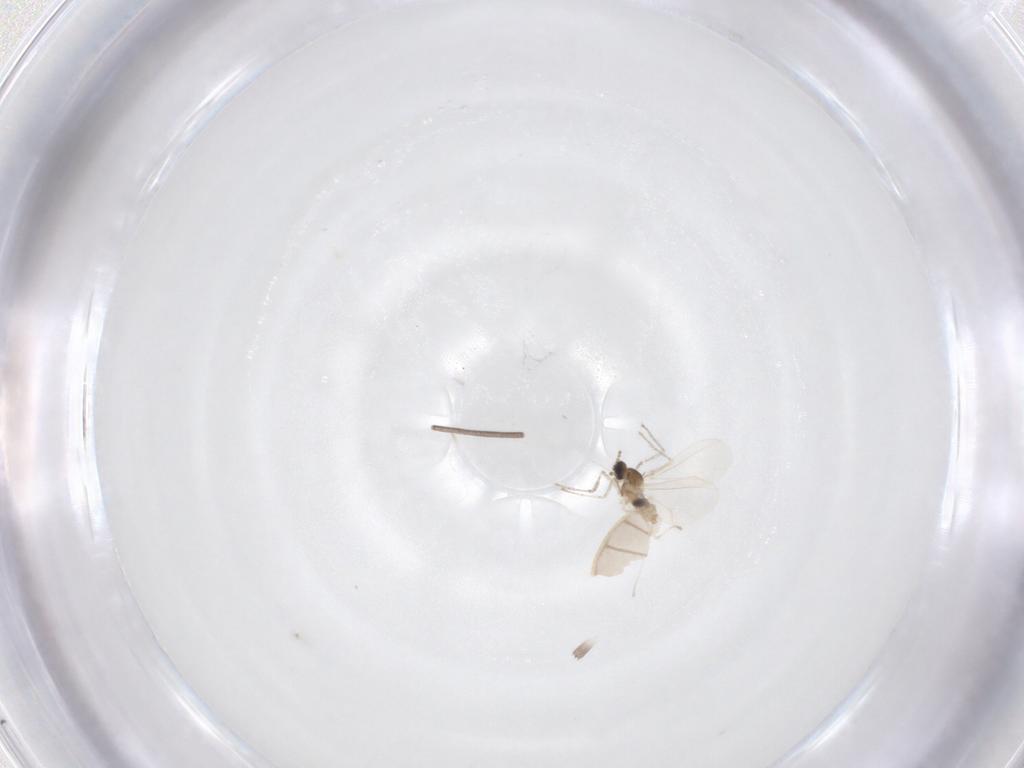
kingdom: Animalia
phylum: Arthropoda
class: Insecta
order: Diptera
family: Cecidomyiidae
